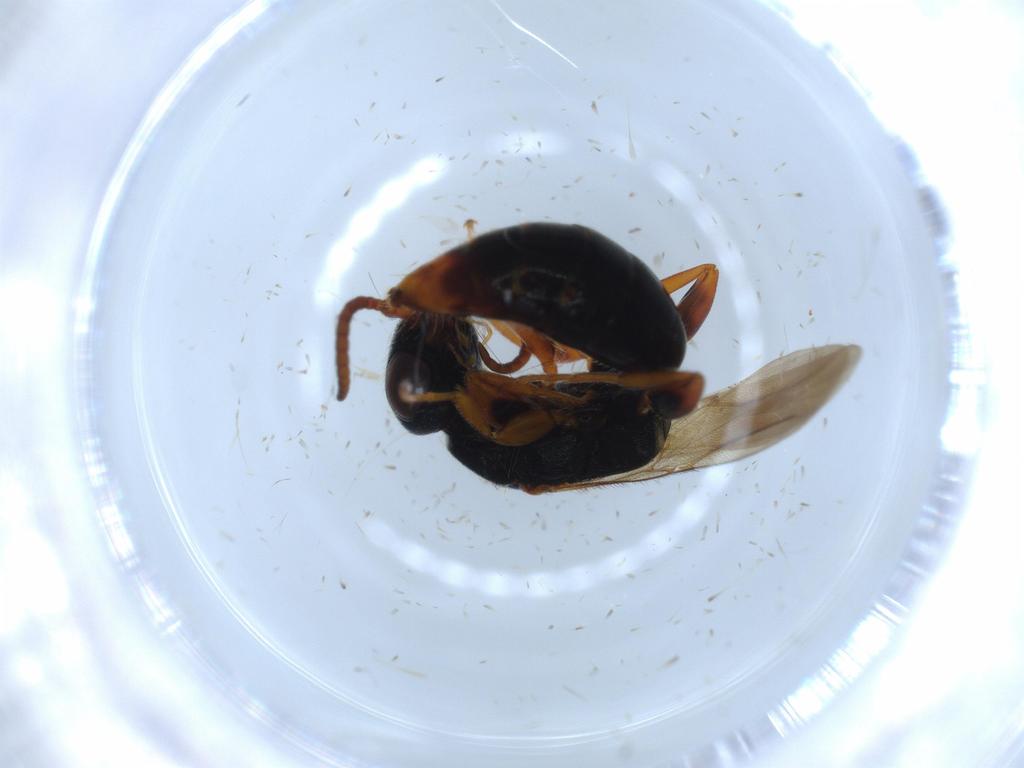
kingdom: Animalia
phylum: Arthropoda
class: Insecta
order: Hymenoptera
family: Bethylidae
